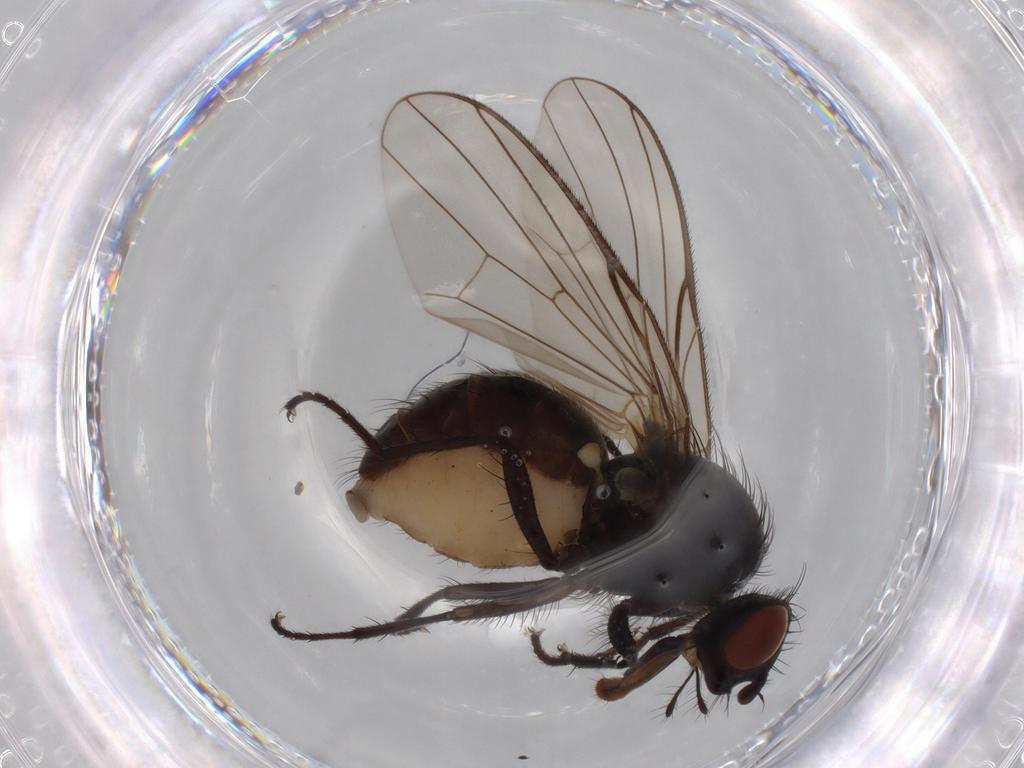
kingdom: Animalia
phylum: Arthropoda
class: Insecta
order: Diptera
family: Anthomyiidae
